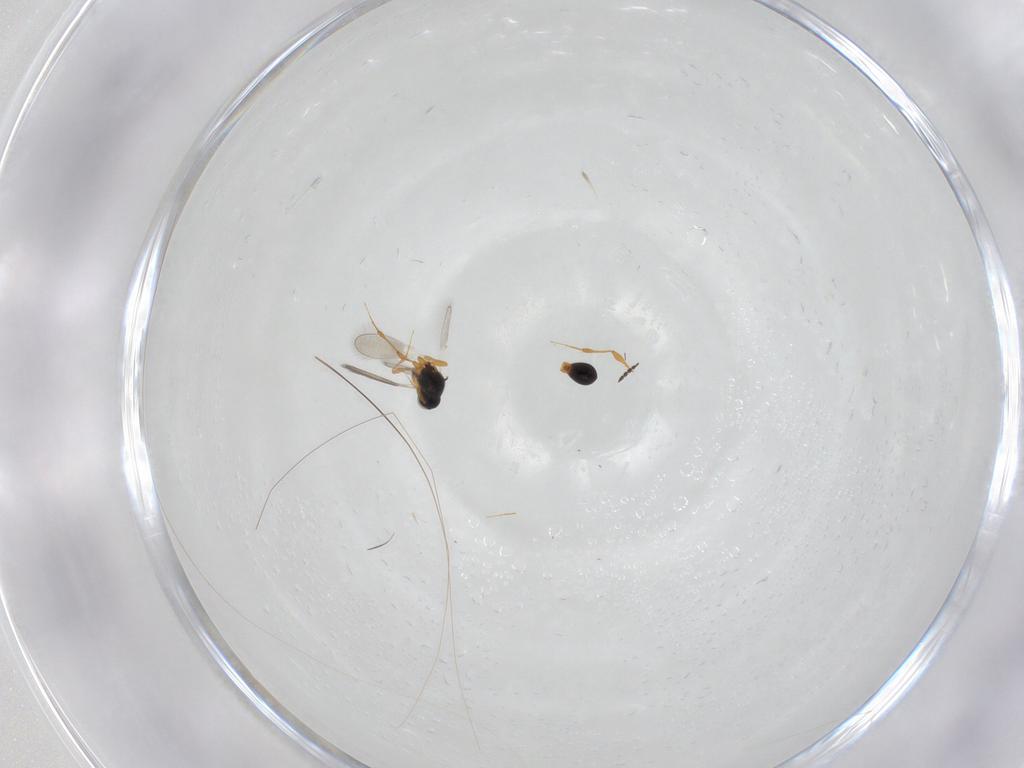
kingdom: Animalia
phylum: Arthropoda
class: Insecta
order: Hymenoptera
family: Platygastridae
